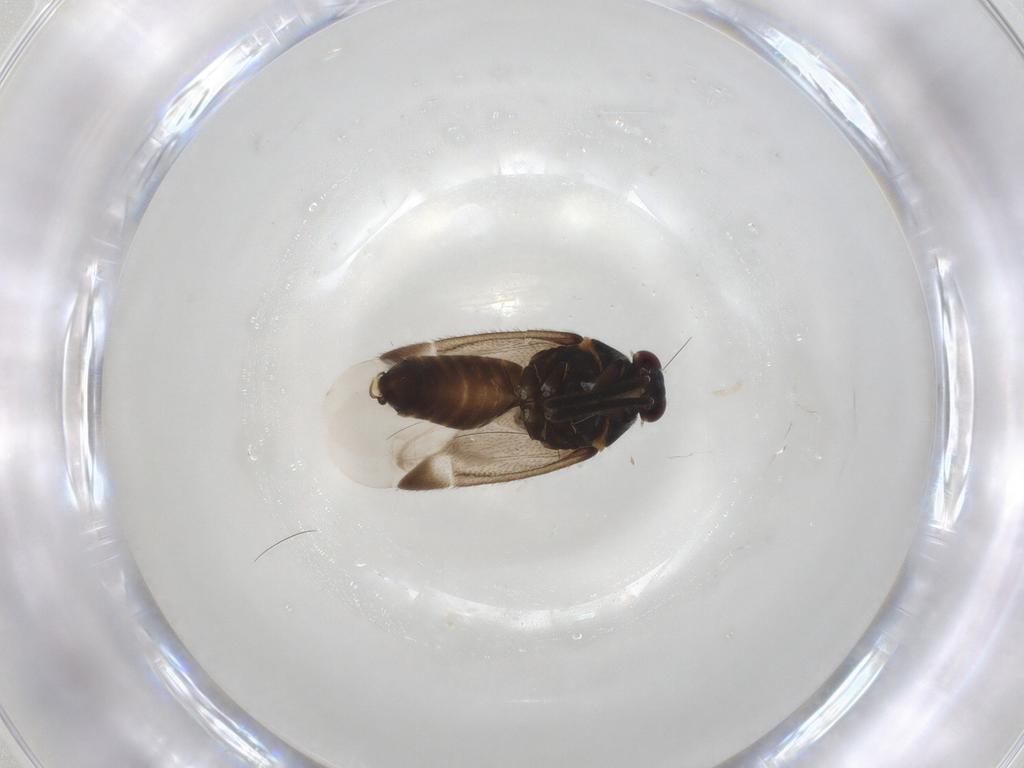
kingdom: Animalia
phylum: Arthropoda
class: Insecta
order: Hemiptera
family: Miridae
